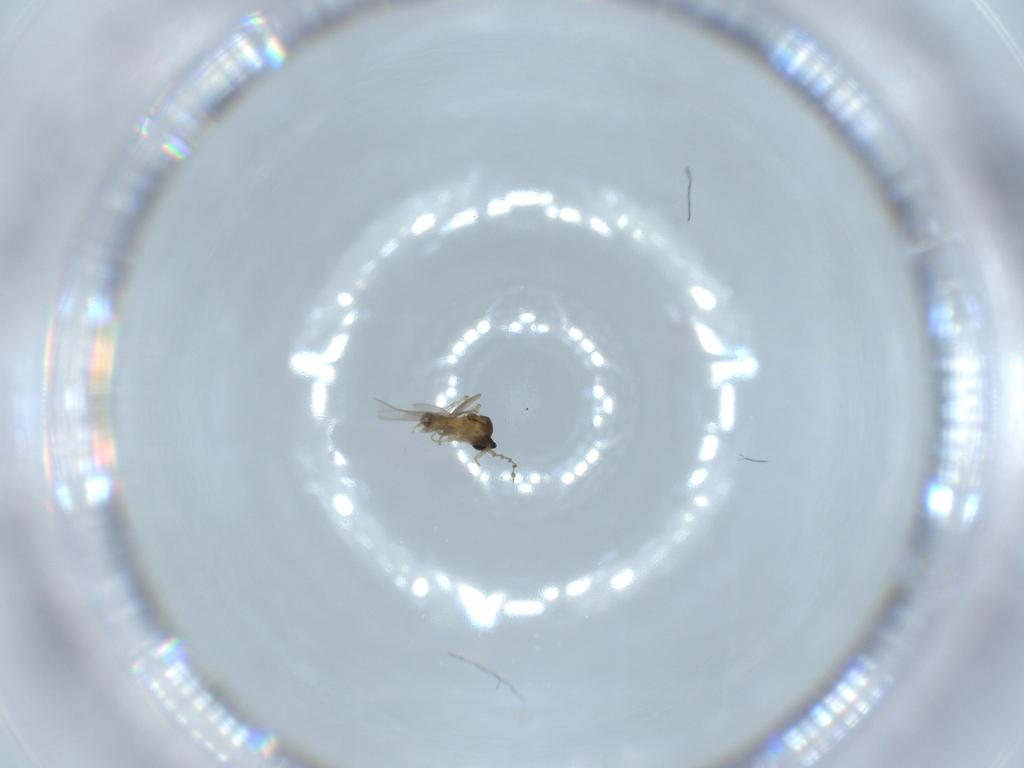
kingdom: Animalia
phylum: Arthropoda
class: Insecta
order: Diptera
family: Cecidomyiidae
